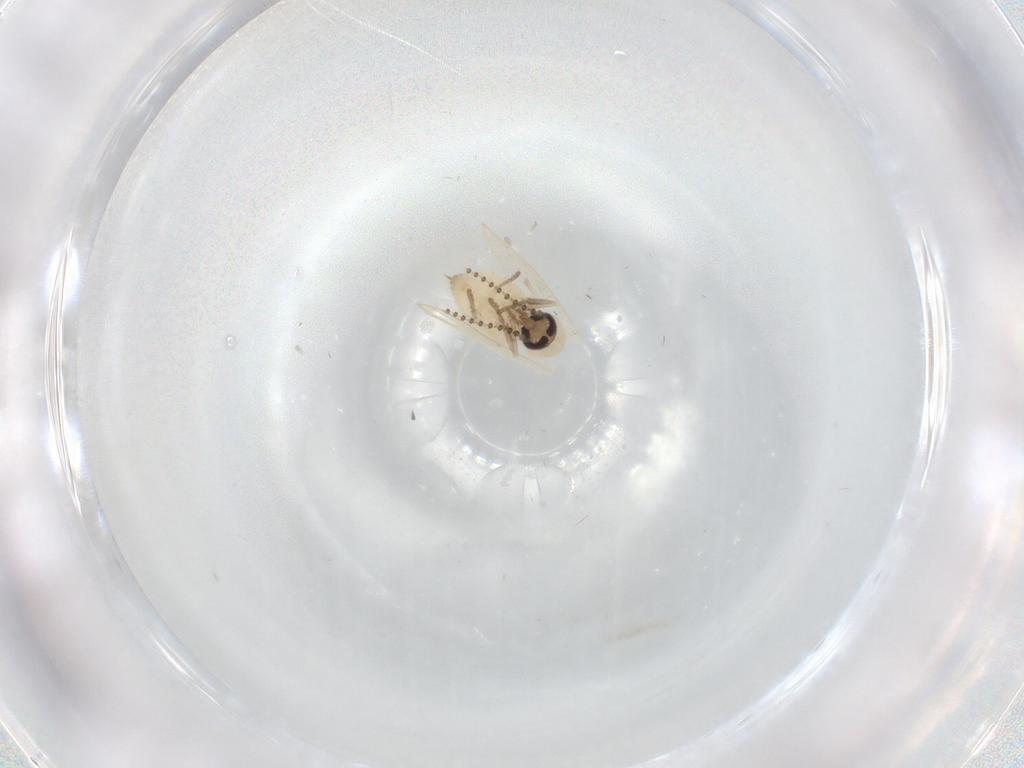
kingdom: Animalia
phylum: Arthropoda
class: Insecta
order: Diptera
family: Psychodidae
